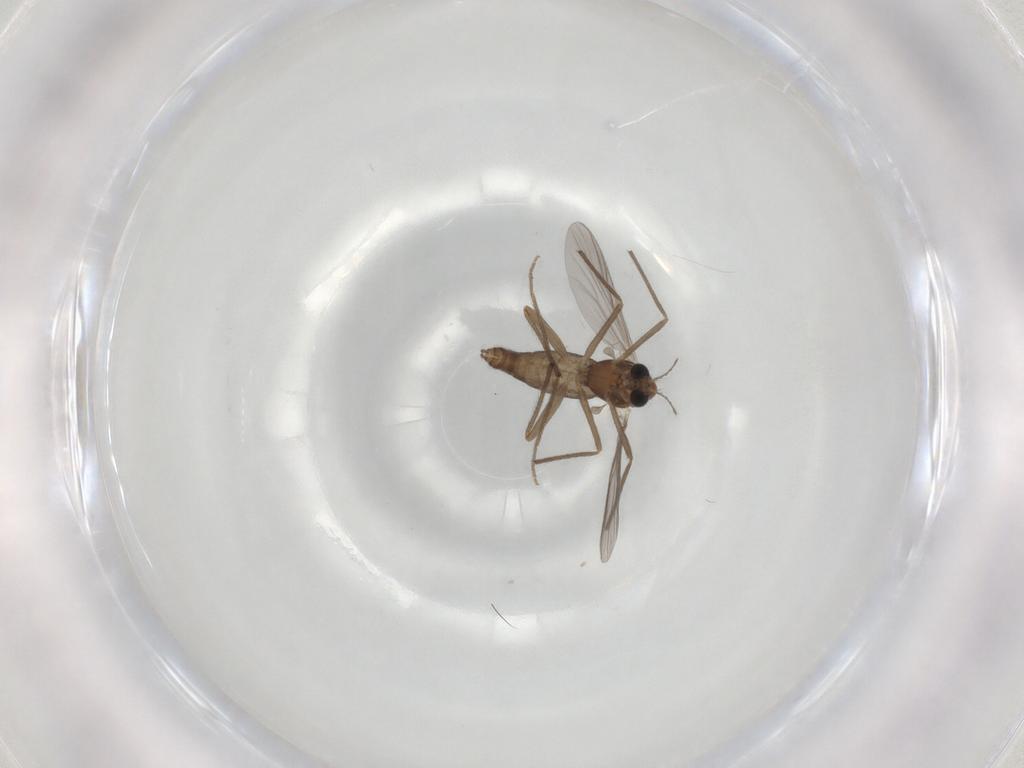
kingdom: Animalia
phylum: Arthropoda
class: Insecta
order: Diptera
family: Chironomidae
